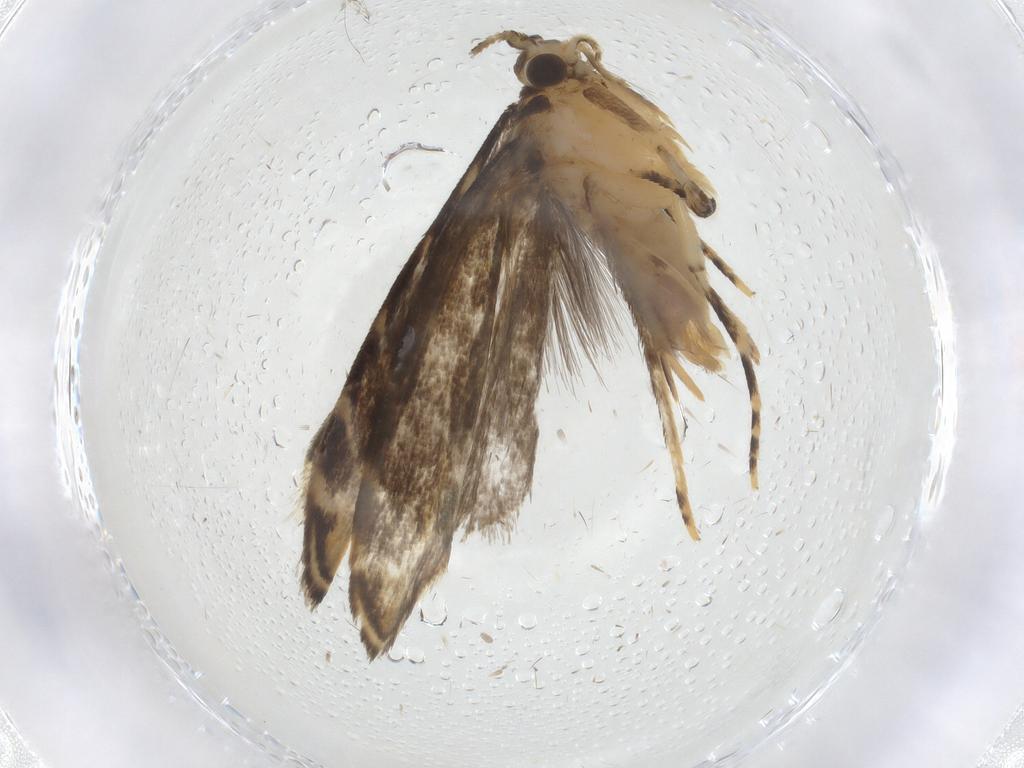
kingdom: Animalia
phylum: Arthropoda
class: Insecta
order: Lepidoptera
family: Dryadaulidae
